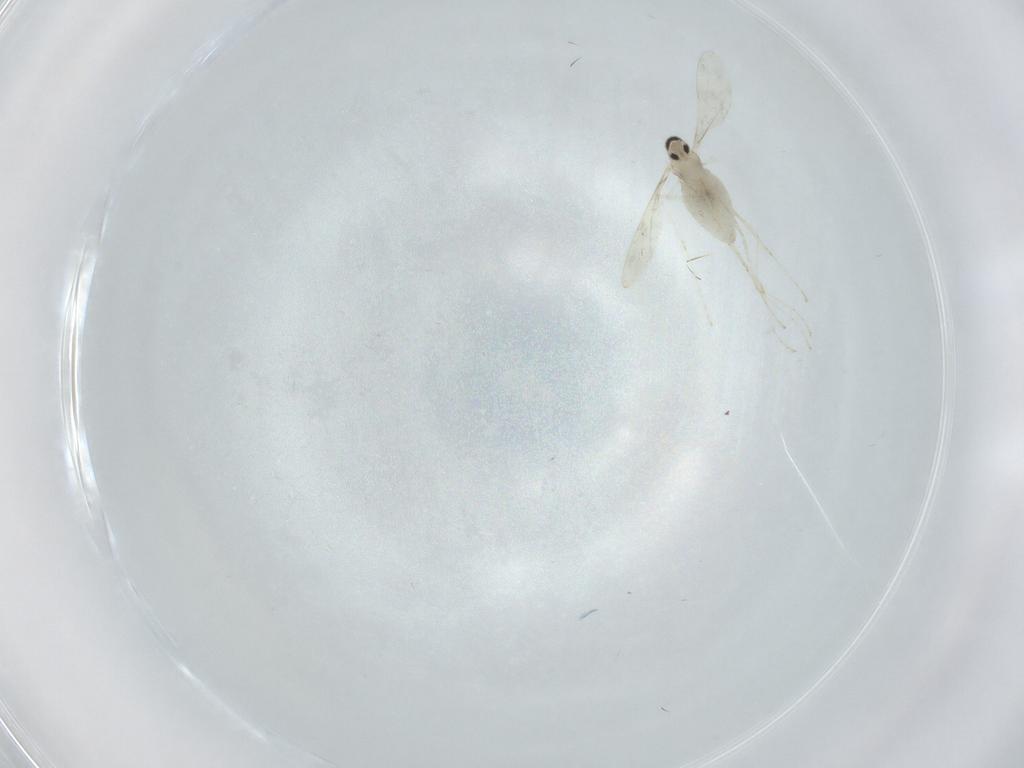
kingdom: Animalia
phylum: Arthropoda
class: Insecta
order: Diptera
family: Cecidomyiidae
